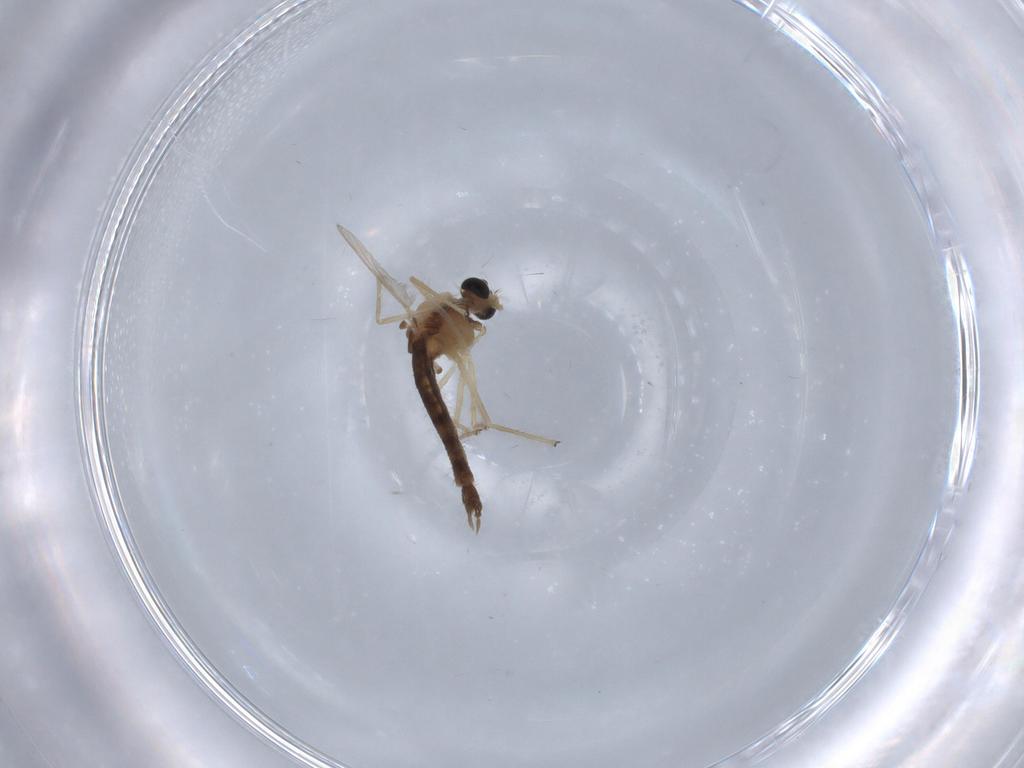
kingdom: Animalia
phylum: Arthropoda
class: Insecta
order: Diptera
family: Chironomidae
